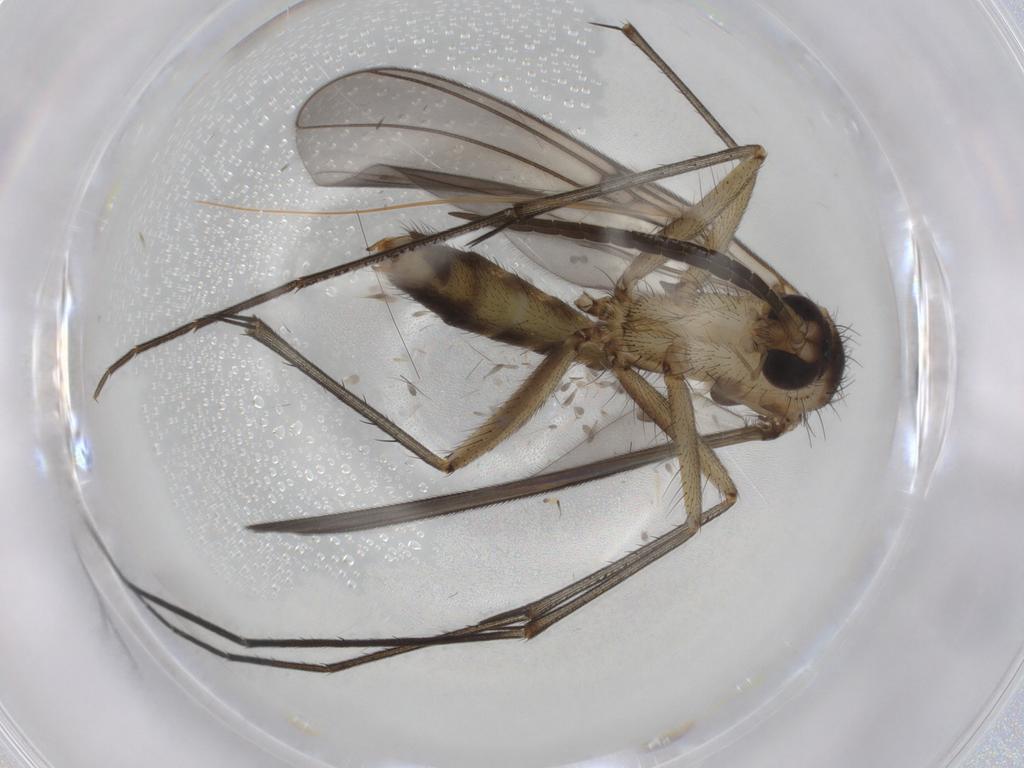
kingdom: Animalia
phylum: Arthropoda
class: Insecta
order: Diptera
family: Mycetophilidae
